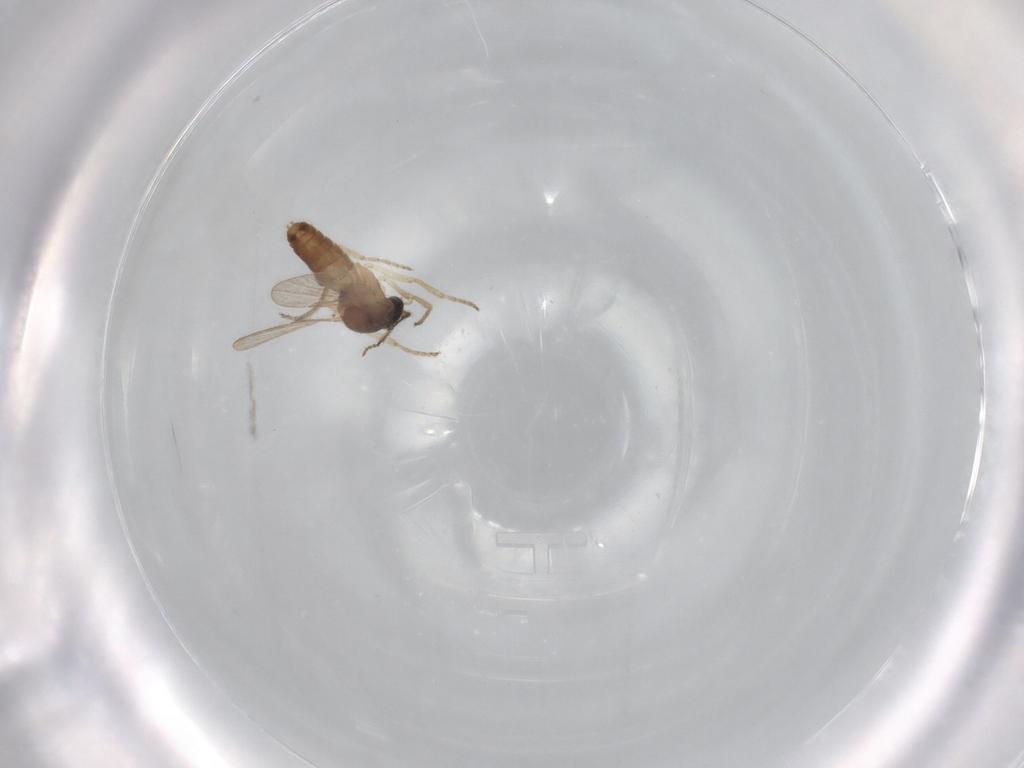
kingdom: Animalia
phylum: Arthropoda
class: Insecta
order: Diptera
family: Ceratopogonidae
